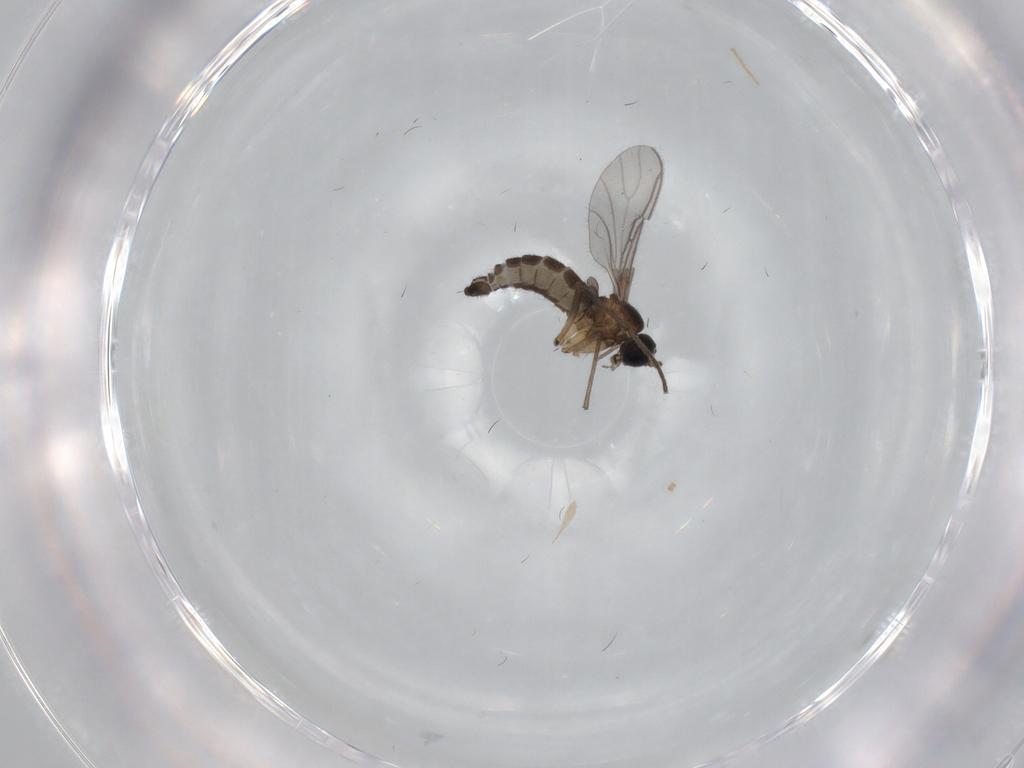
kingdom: Animalia
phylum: Arthropoda
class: Insecta
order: Diptera
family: Sciaridae
